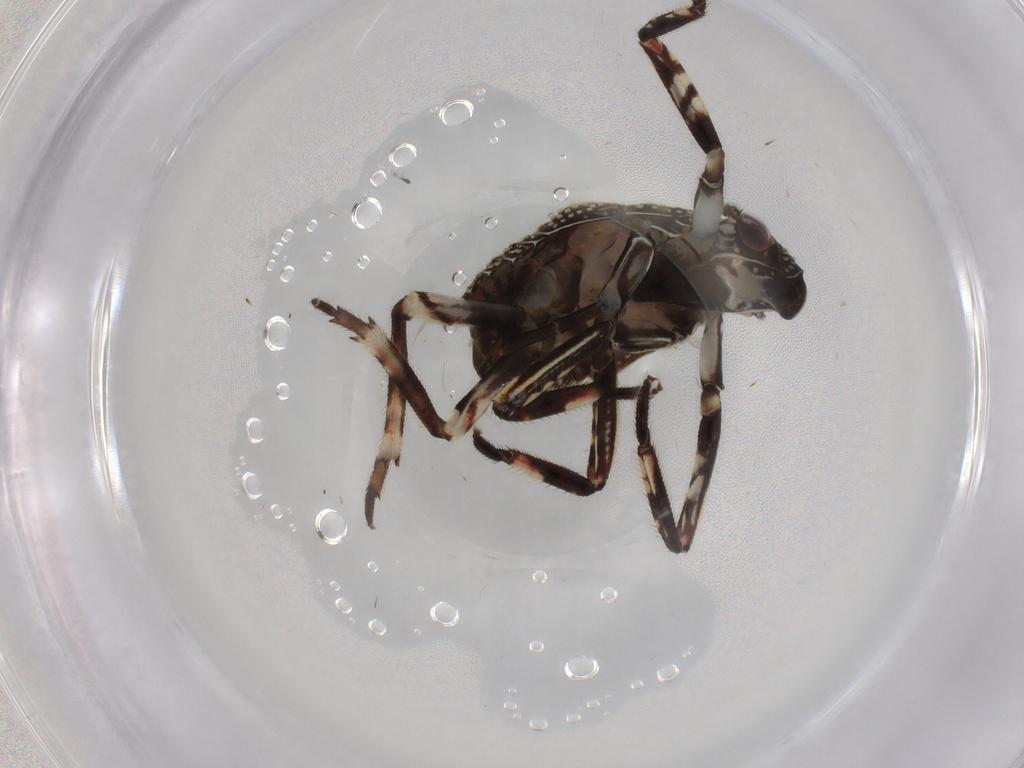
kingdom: Animalia
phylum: Arthropoda
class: Insecta
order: Hemiptera
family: Fulgoridae
